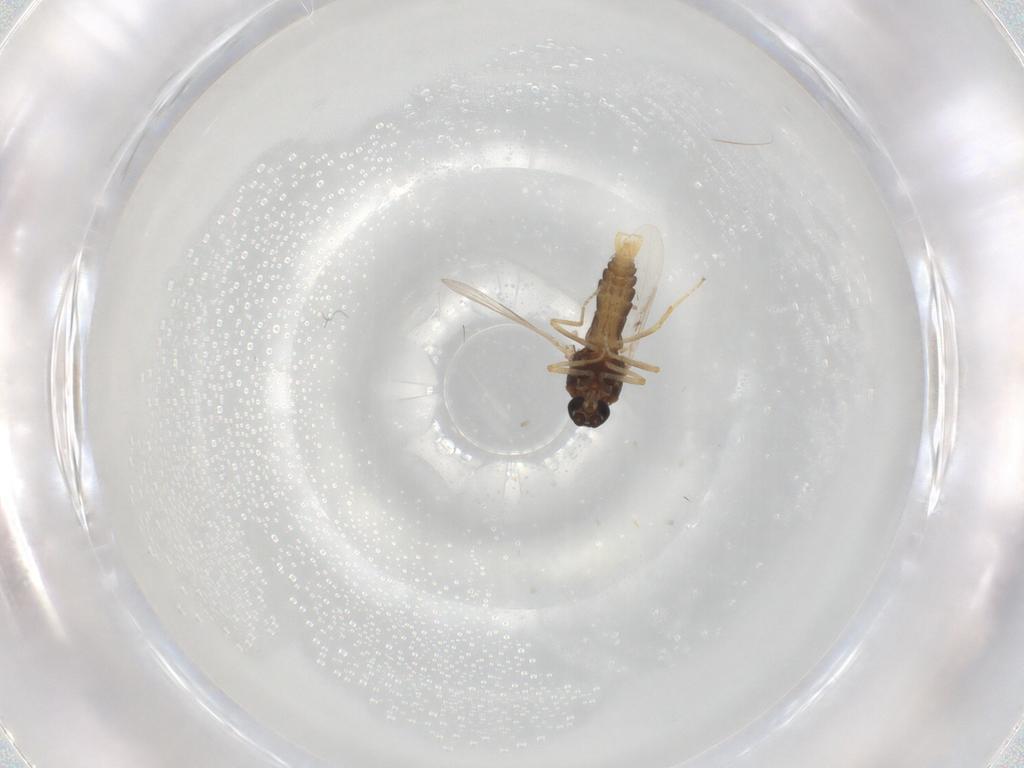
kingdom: Animalia
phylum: Arthropoda
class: Insecta
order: Diptera
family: Ceratopogonidae
